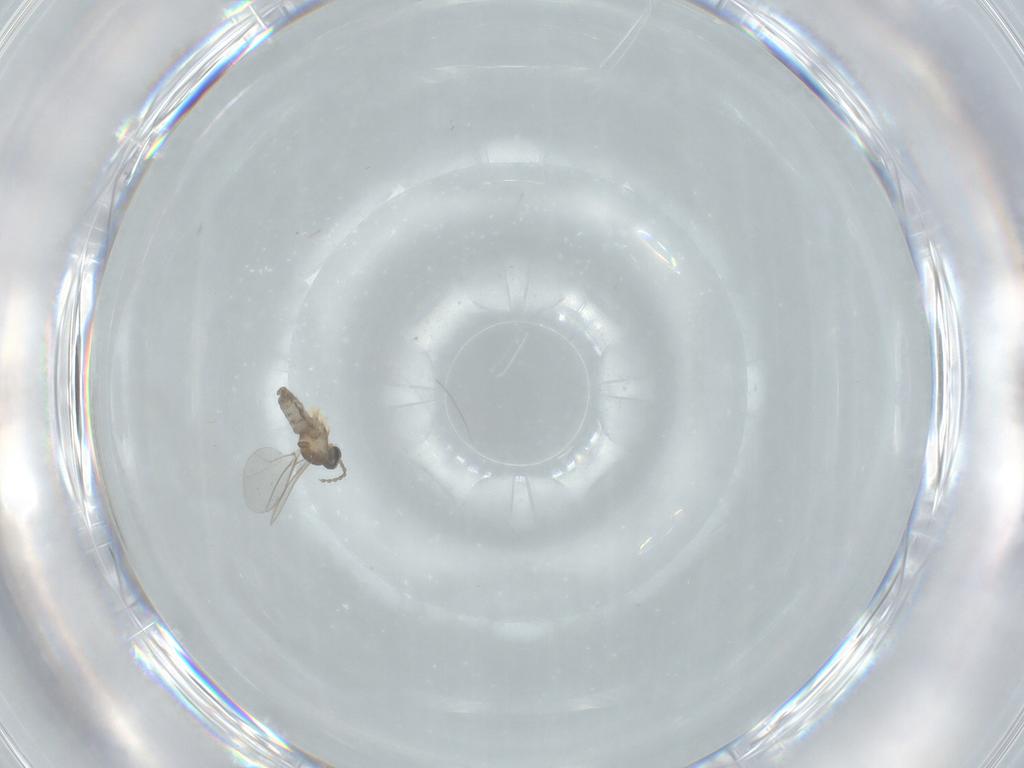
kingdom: Animalia
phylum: Arthropoda
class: Insecta
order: Diptera
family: Cecidomyiidae
